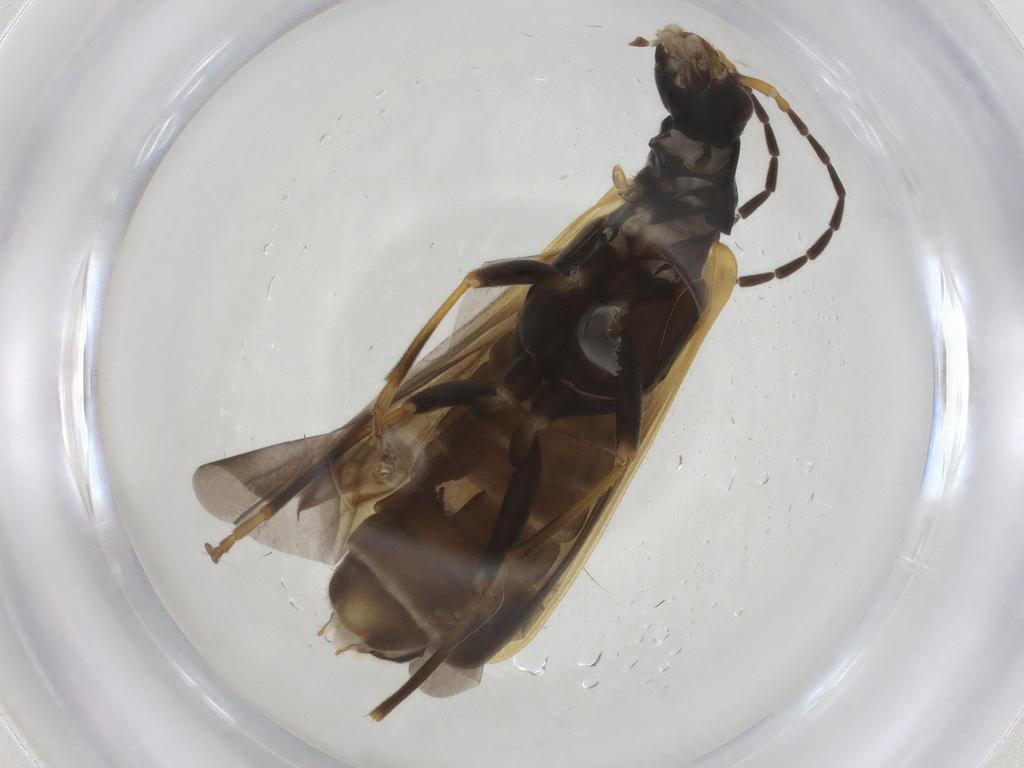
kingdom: Animalia
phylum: Arthropoda
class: Insecta
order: Coleoptera
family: Cantharidae
